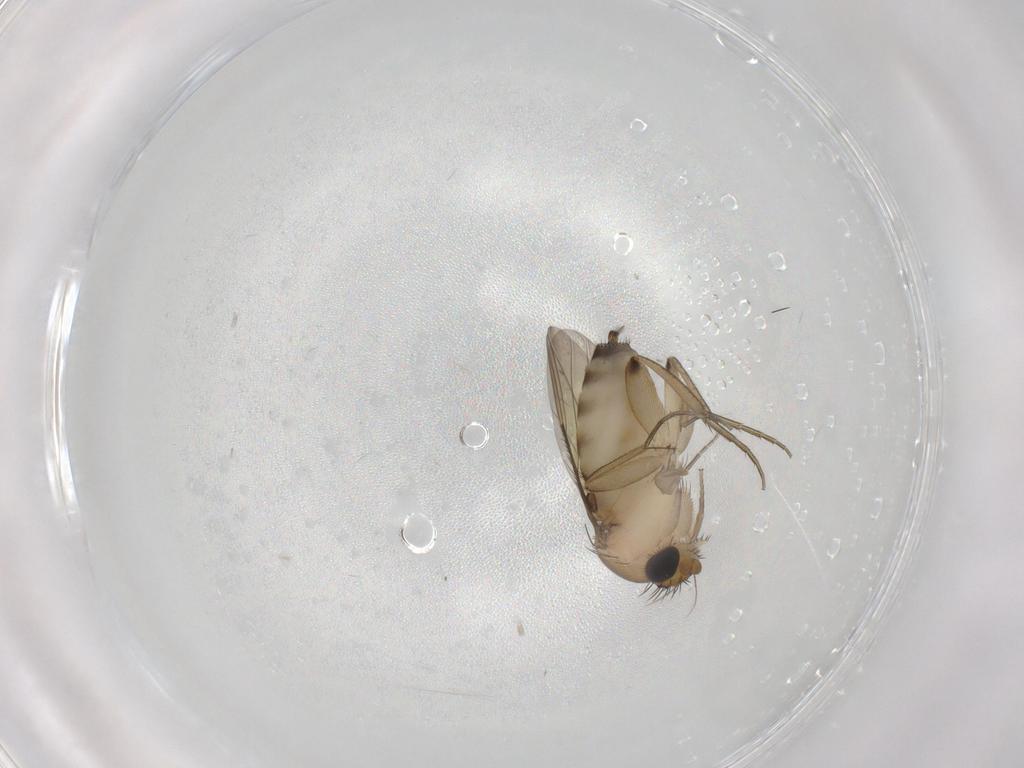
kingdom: Animalia
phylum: Arthropoda
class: Insecta
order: Diptera
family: Phoridae
